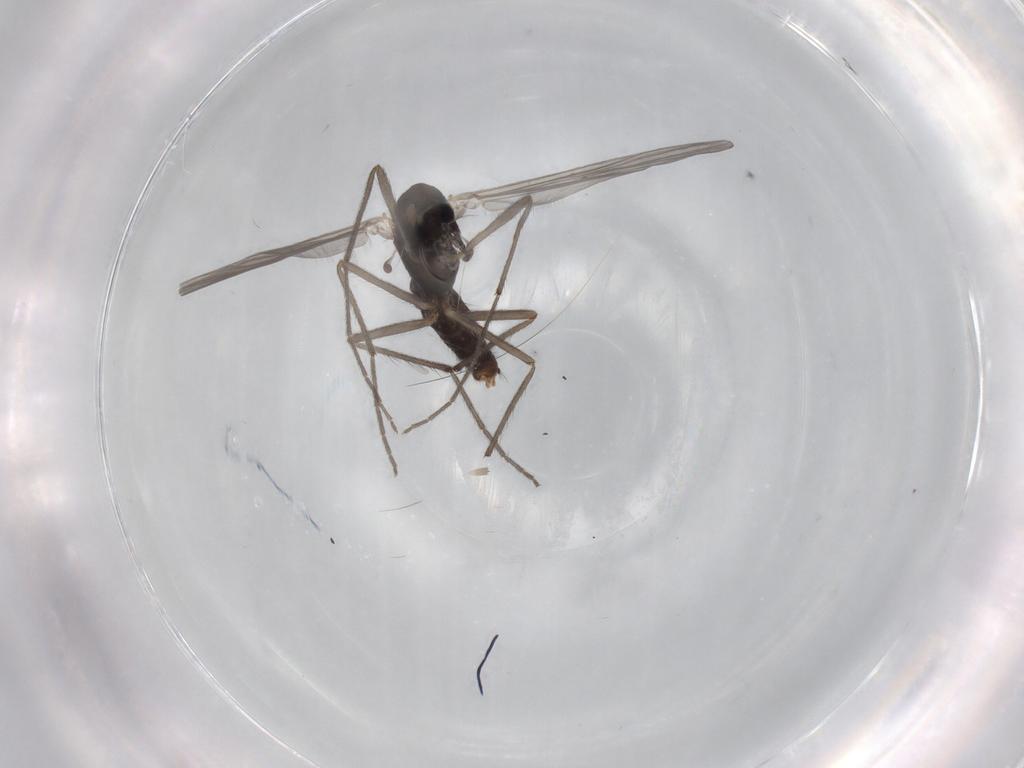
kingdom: Animalia
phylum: Arthropoda
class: Insecta
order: Diptera
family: Chironomidae
